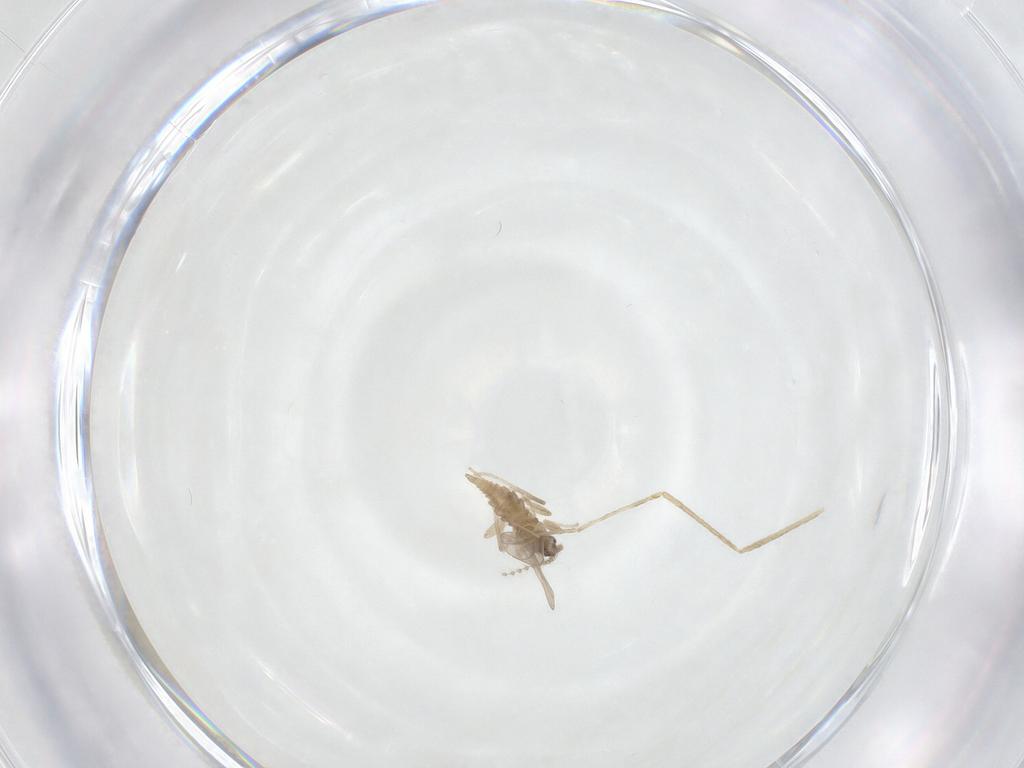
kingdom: Animalia
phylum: Arthropoda
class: Insecta
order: Diptera
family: Cecidomyiidae
